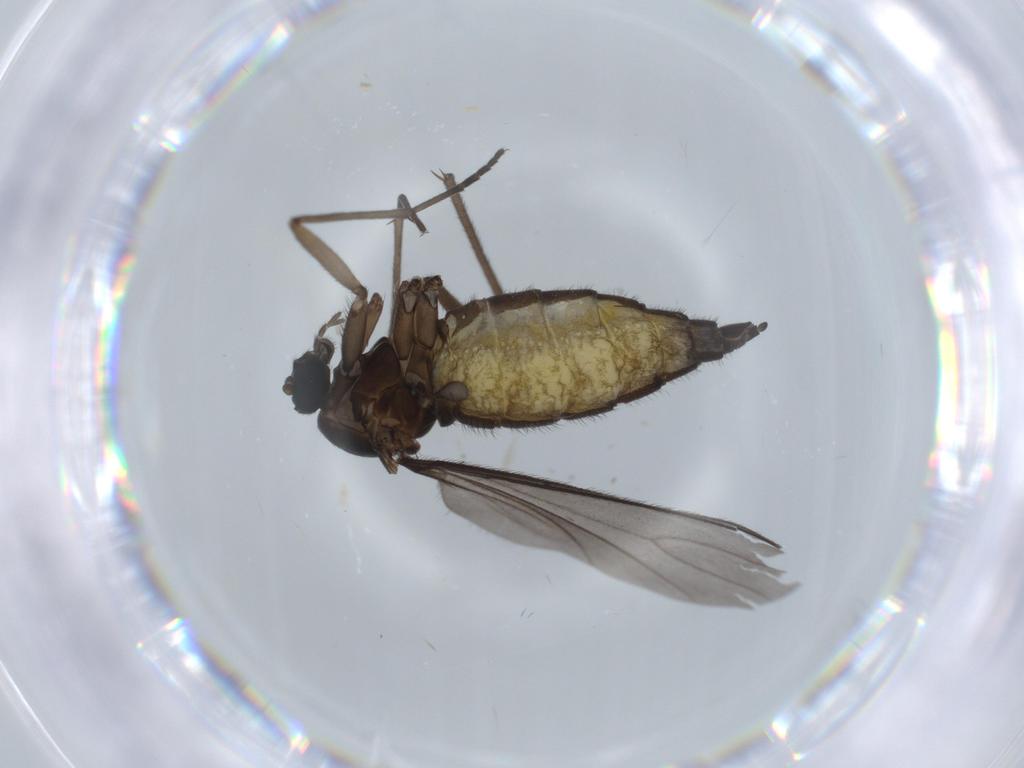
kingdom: Animalia
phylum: Arthropoda
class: Insecta
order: Diptera
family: Sciaridae
